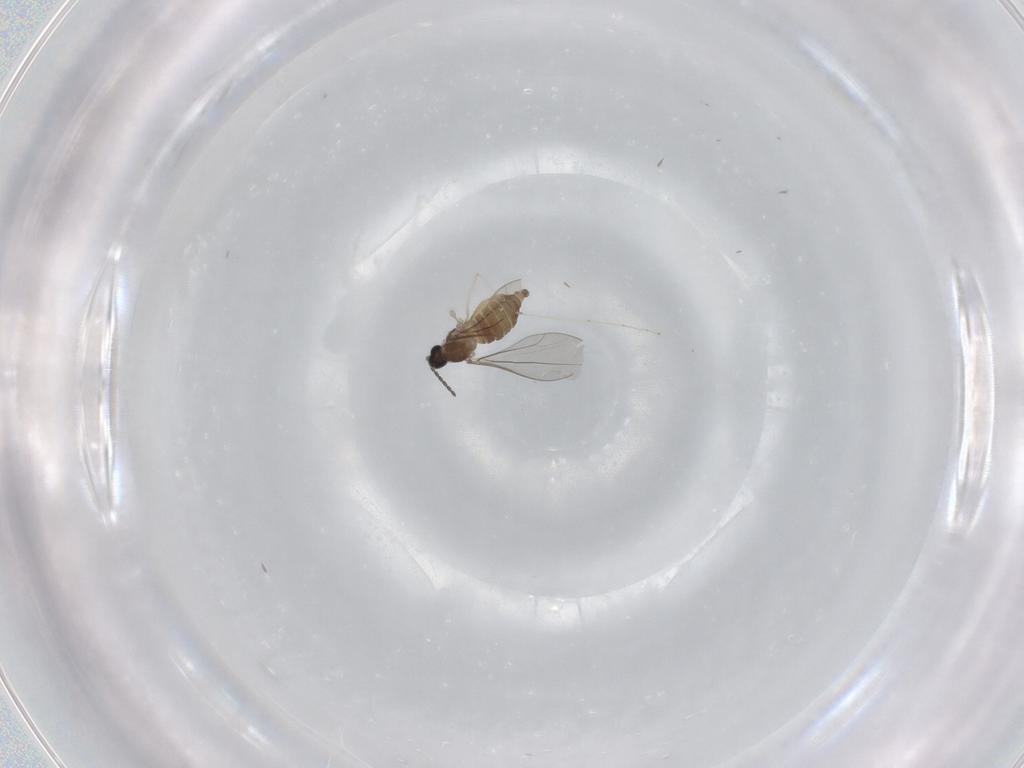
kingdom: Animalia
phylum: Arthropoda
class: Insecta
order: Diptera
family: Cecidomyiidae
